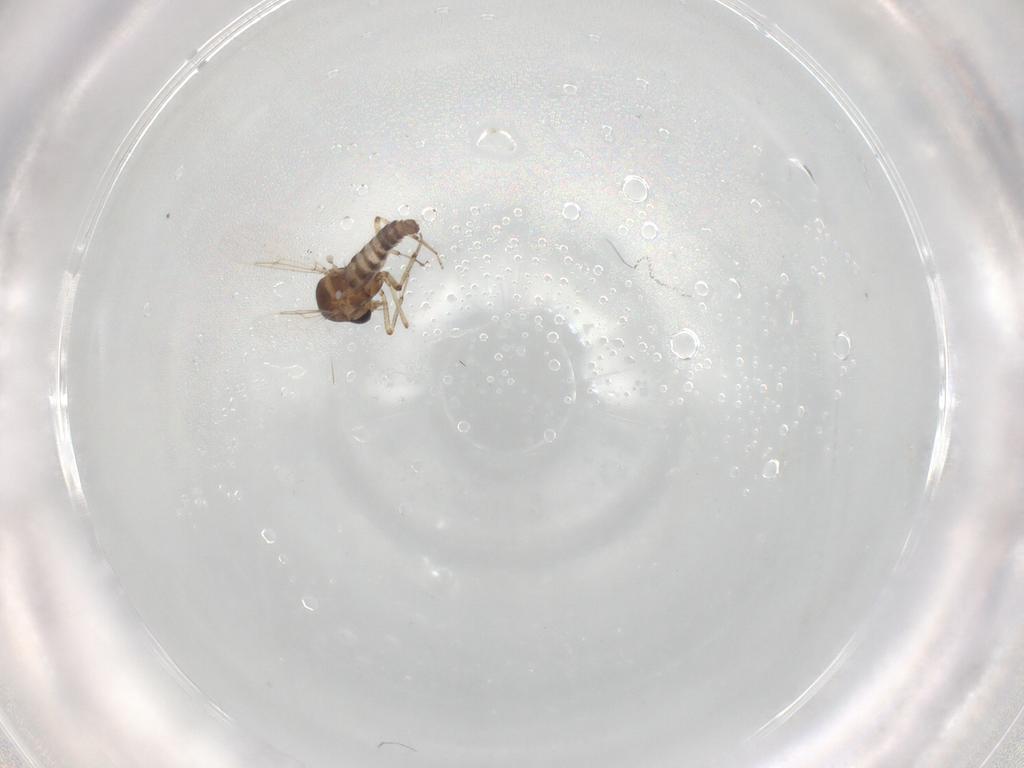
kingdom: Animalia
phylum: Arthropoda
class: Insecta
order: Diptera
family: Ceratopogonidae
